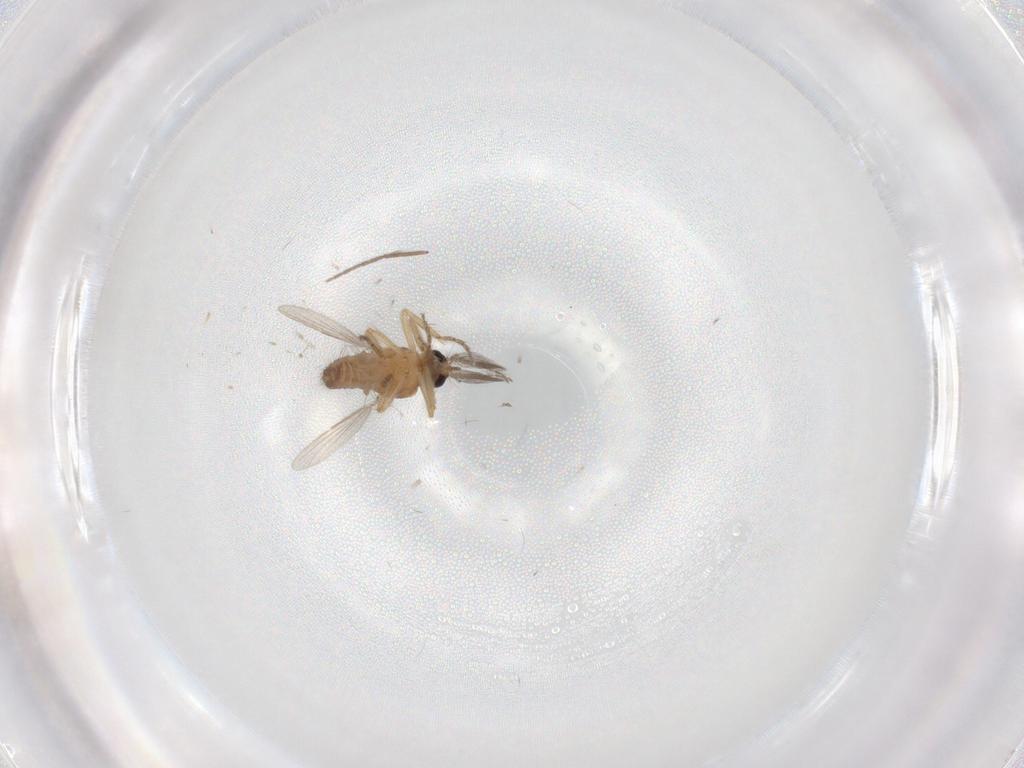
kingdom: Animalia
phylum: Arthropoda
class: Insecta
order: Diptera
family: Ceratopogonidae
